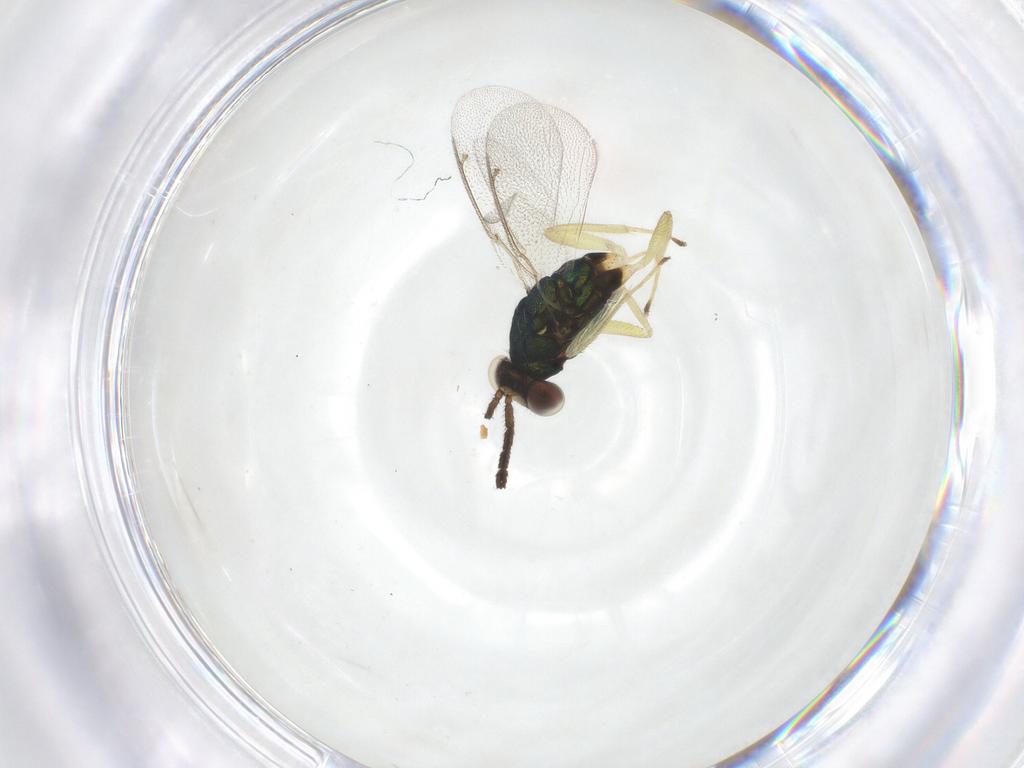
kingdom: Animalia
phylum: Arthropoda
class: Insecta
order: Hymenoptera
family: Eulophidae
